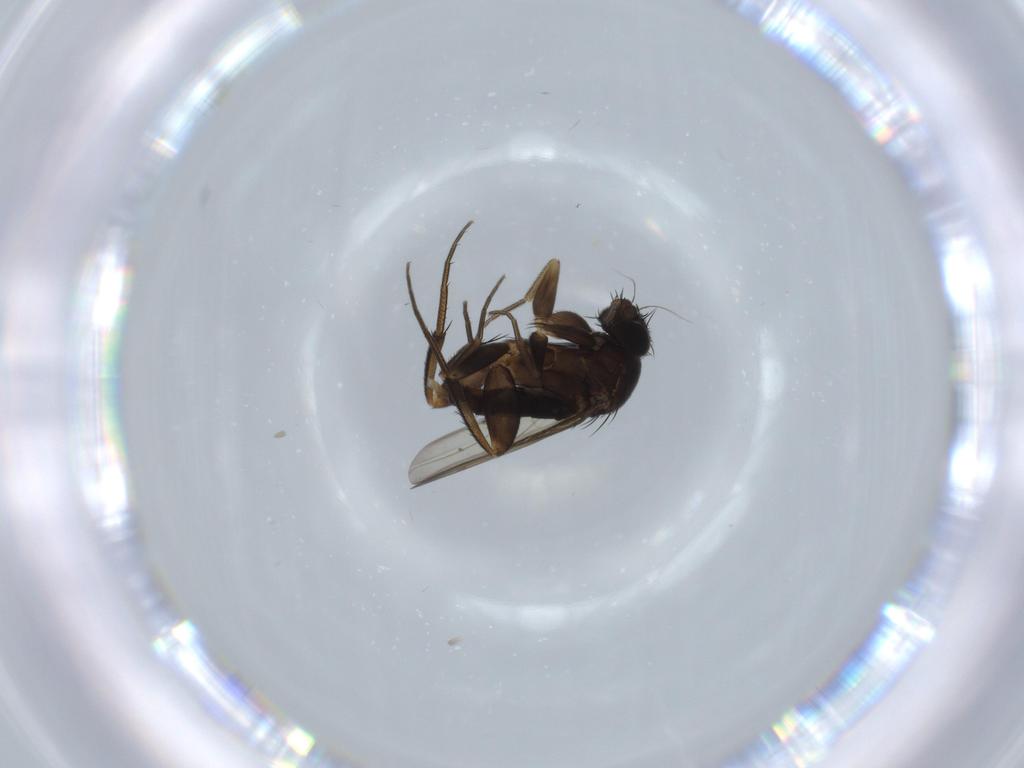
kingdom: Animalia
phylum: Arthropoda
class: Insecta
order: Diptera
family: Phoridae
